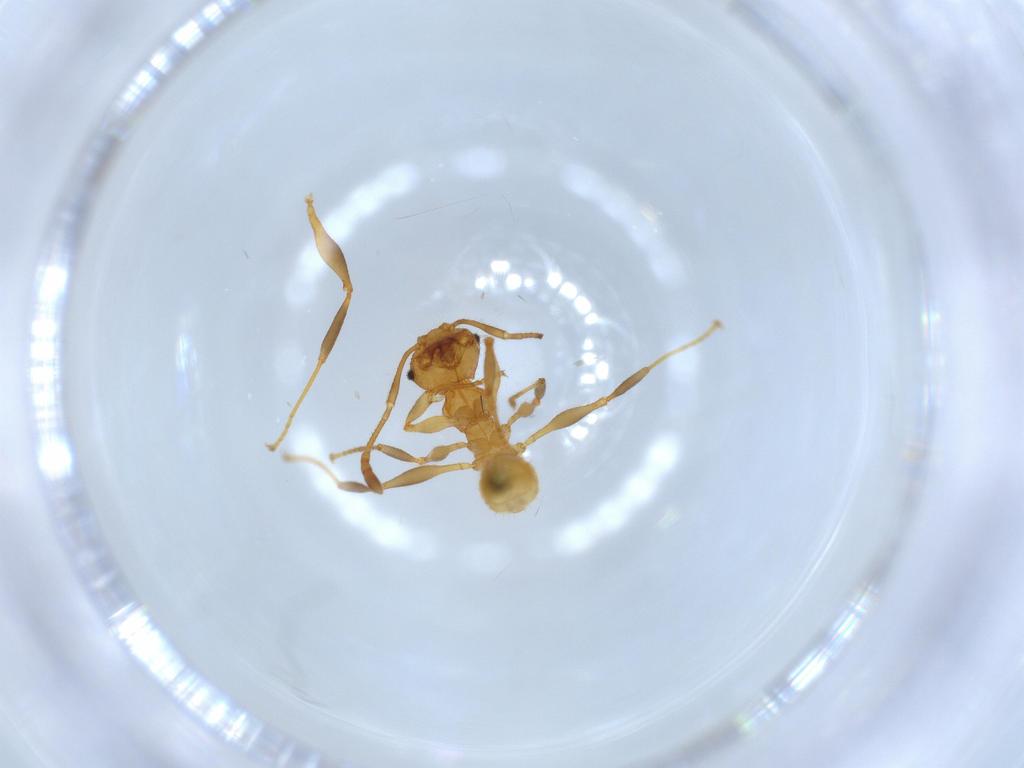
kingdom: Animalia
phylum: Arthropoda
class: Insecta
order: Hymenoptera
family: Formicidae
